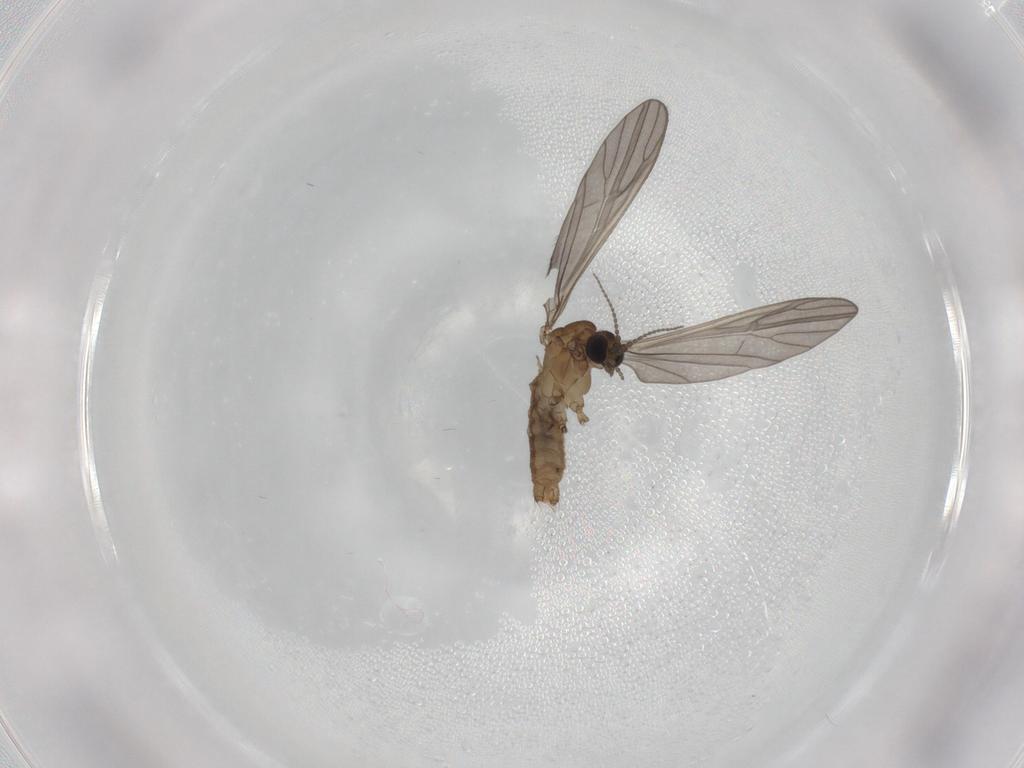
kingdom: Animalia
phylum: Arthropoda
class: Insecta
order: Diptera
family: Limoniidae
